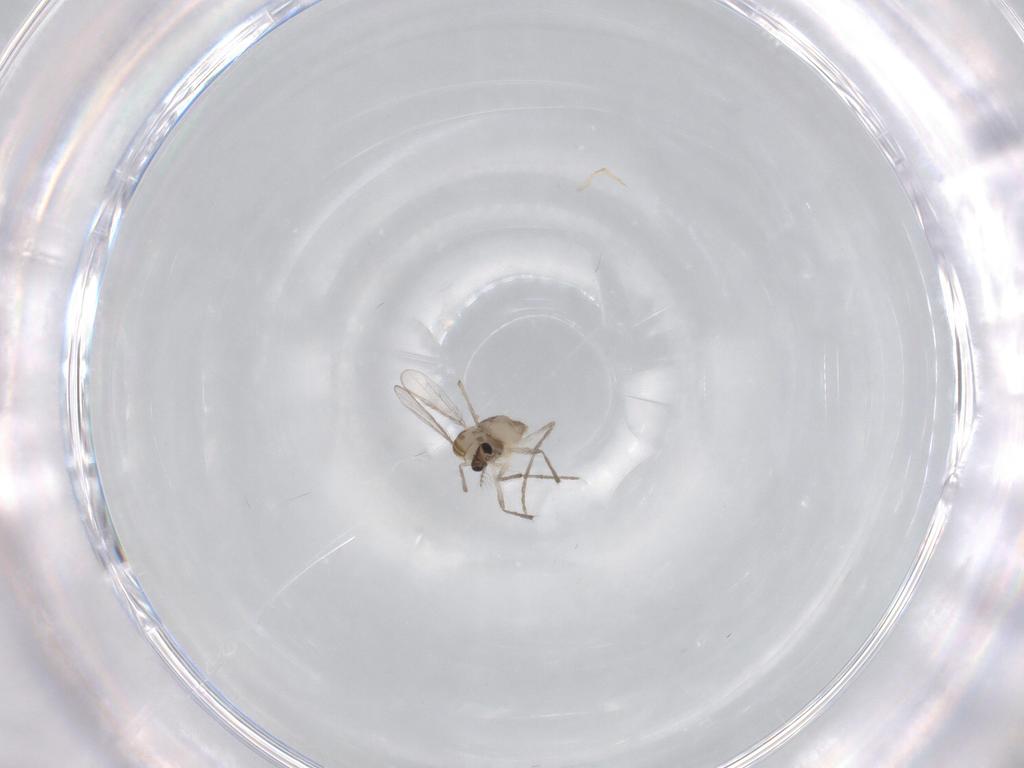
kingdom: Animalia
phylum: Arthropoda
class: Insecta
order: Diptera
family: Chironomidae
